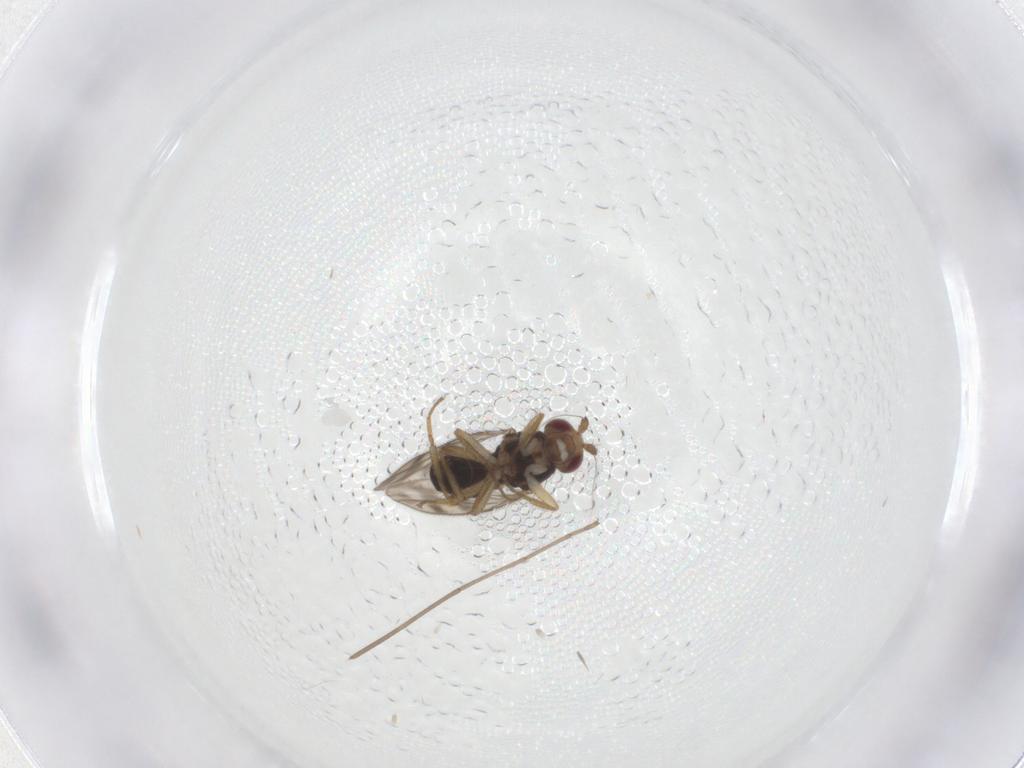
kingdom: Animalia
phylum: Arthropoda
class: Insecta
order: Diptera
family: Sphaeroceridae
